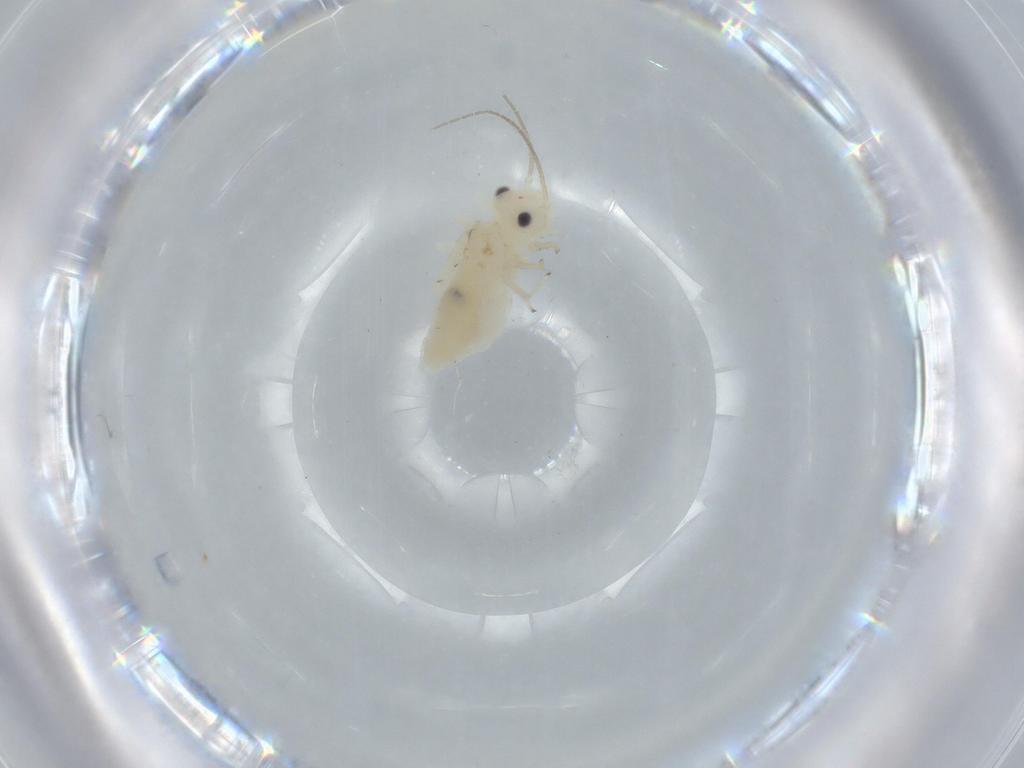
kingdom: Animalia
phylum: Arthropoda
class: Insecta
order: Psocodea
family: Caeciliusidae
